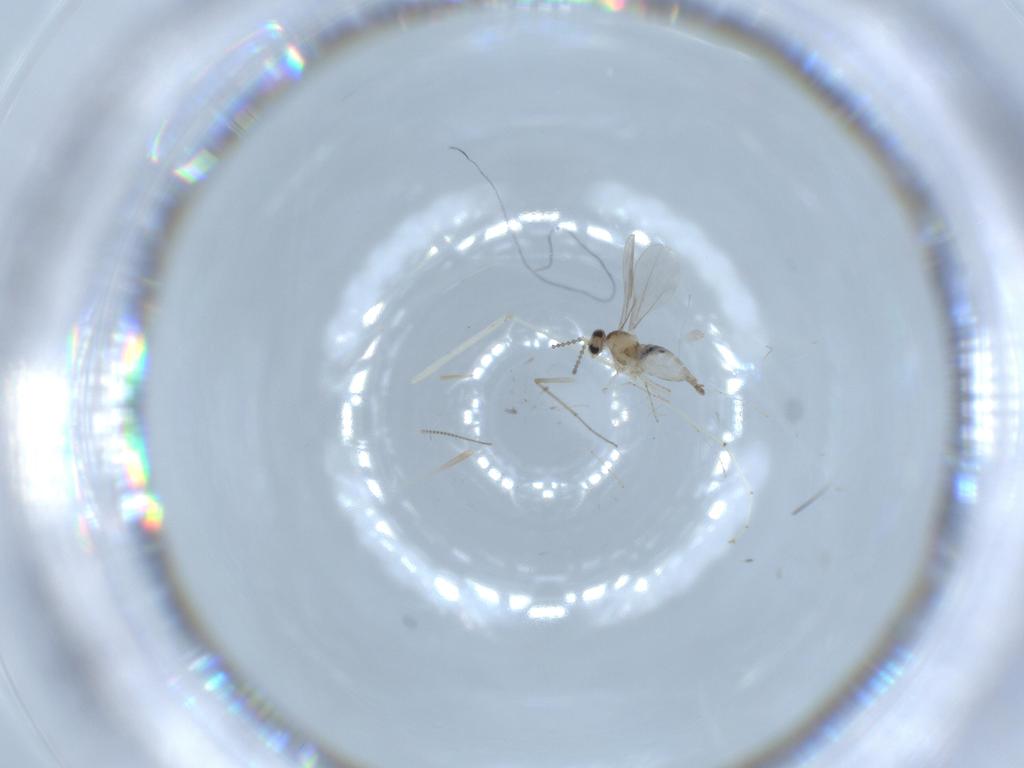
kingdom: Animalia
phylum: Arthropoda
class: Insecta
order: Diptera
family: Cecidomyiidae
